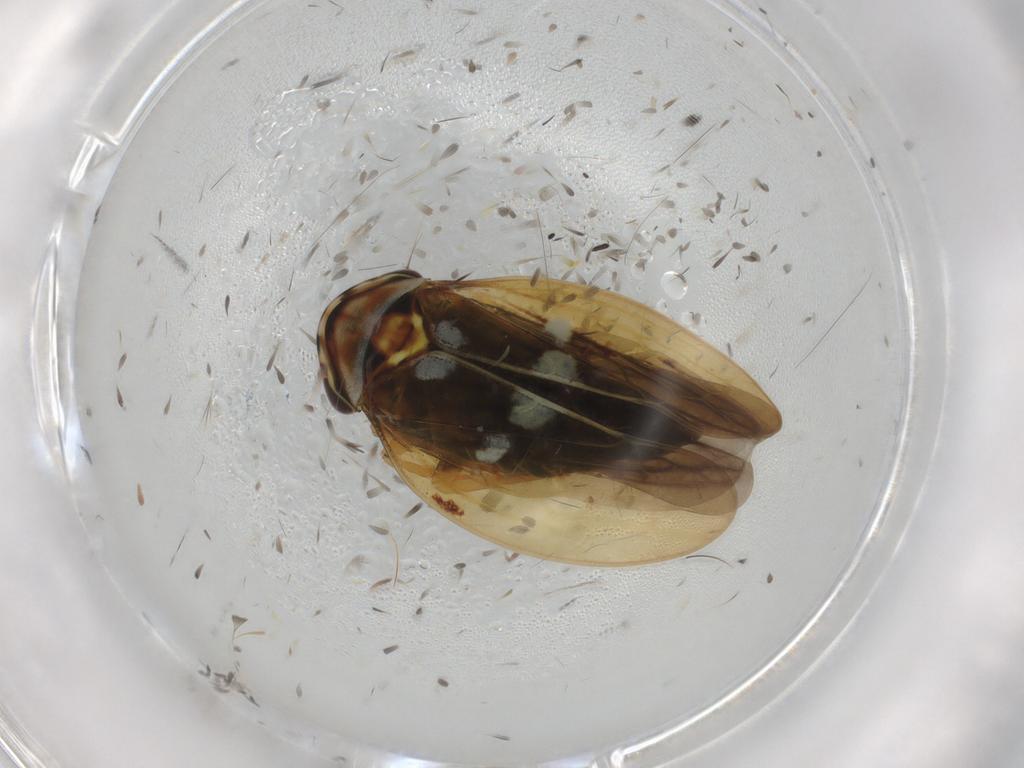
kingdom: Animalia
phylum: Arthropoda
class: Insecta
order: Hemiptera
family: Cicadellidae
